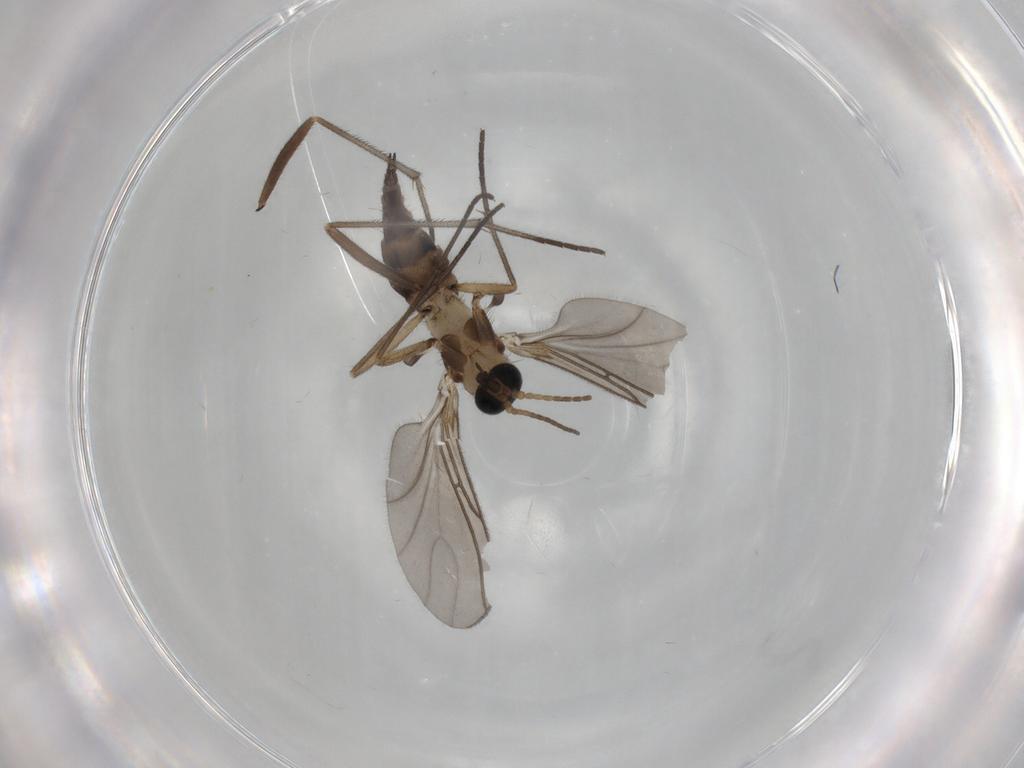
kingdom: Animalia
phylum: Arthropoda
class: Insecta
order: Diptera
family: Sciaridae
